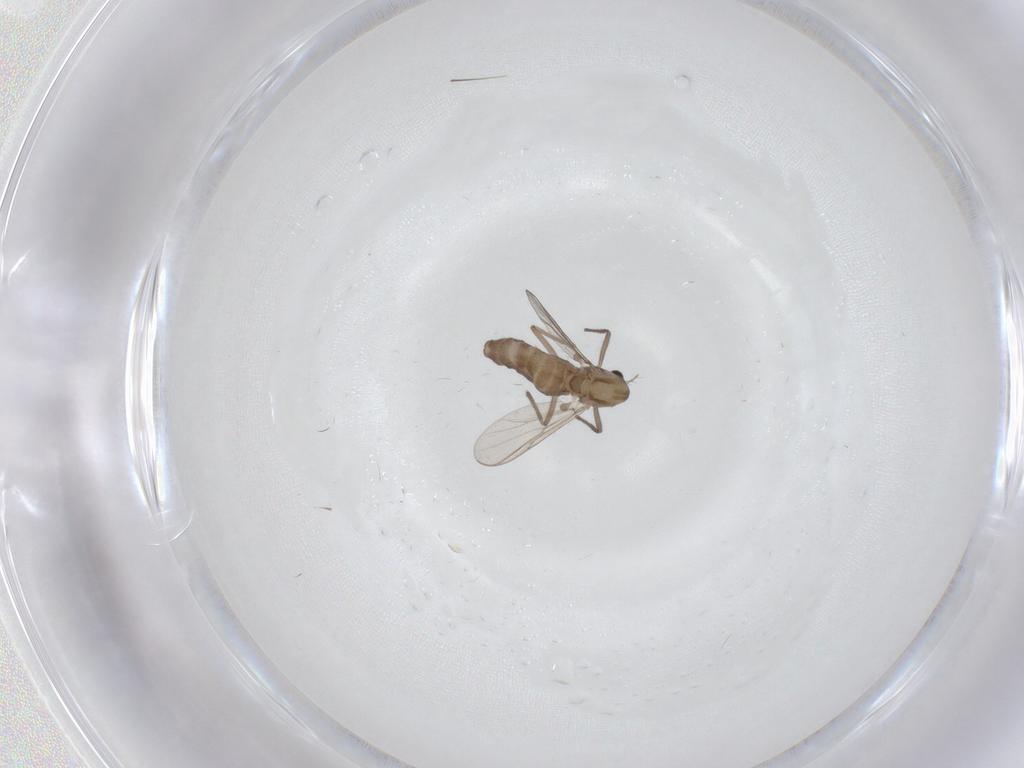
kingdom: Animalia
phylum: Arthropoda
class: Insecta
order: Diptera
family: Chironomidae
